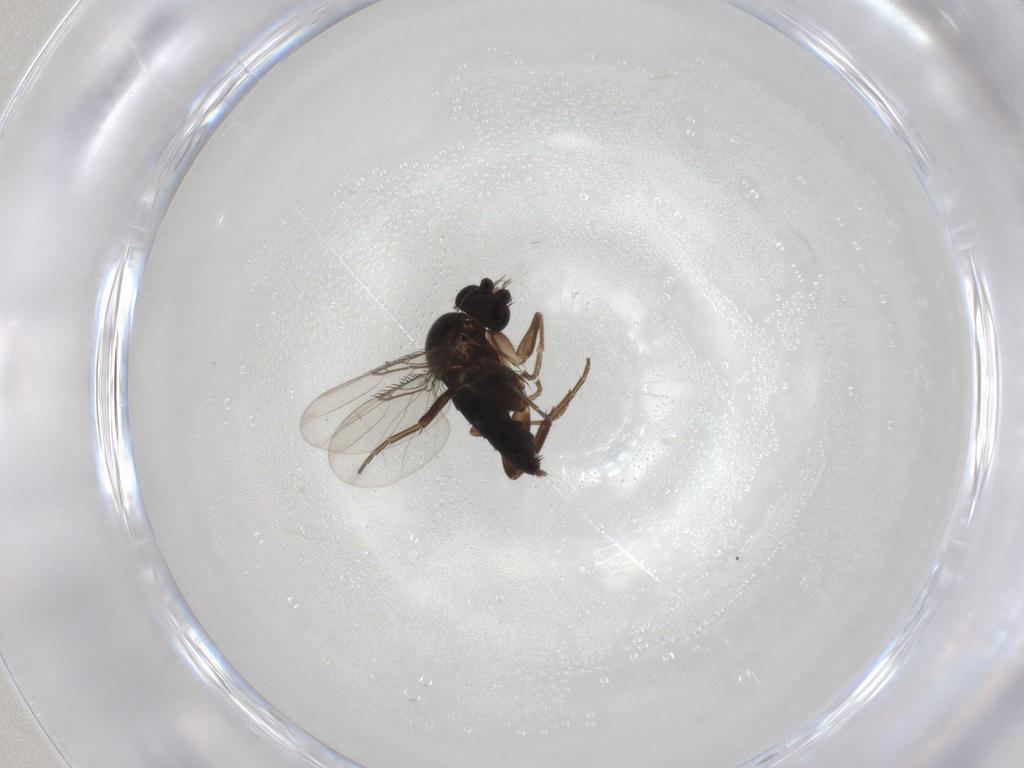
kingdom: Animalia
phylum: Arthropoda
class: Insecta
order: Diptera
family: Phoridae
